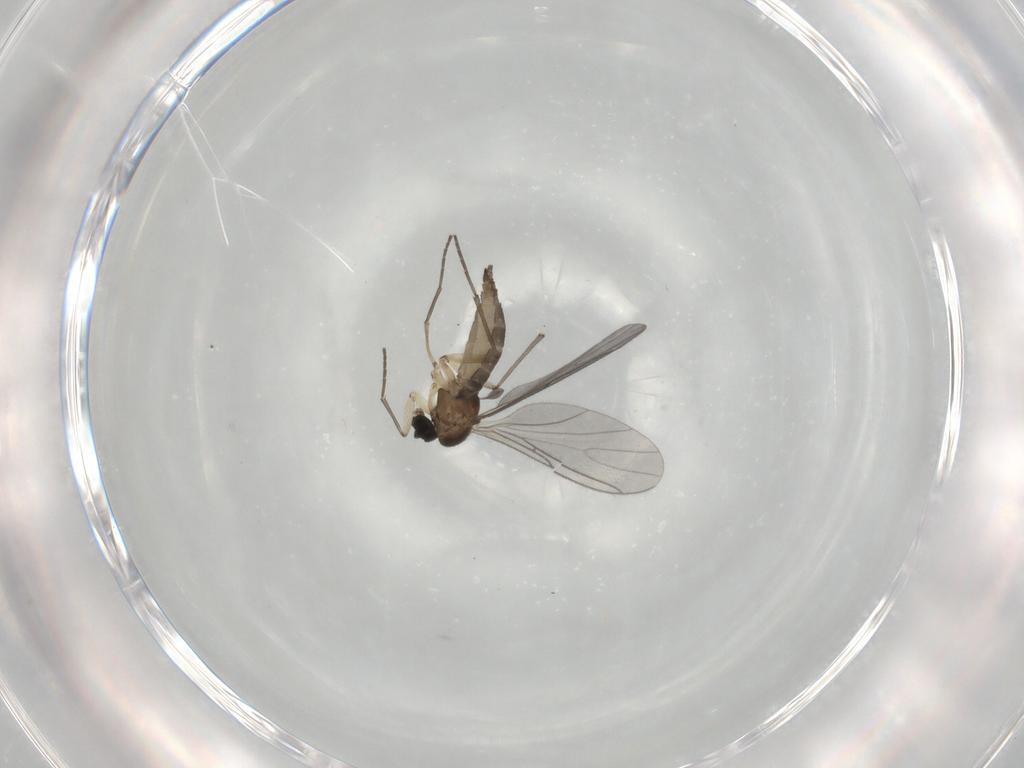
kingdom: Animalia
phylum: Arthropoda
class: Insecta
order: Diptera
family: Sciaridae
